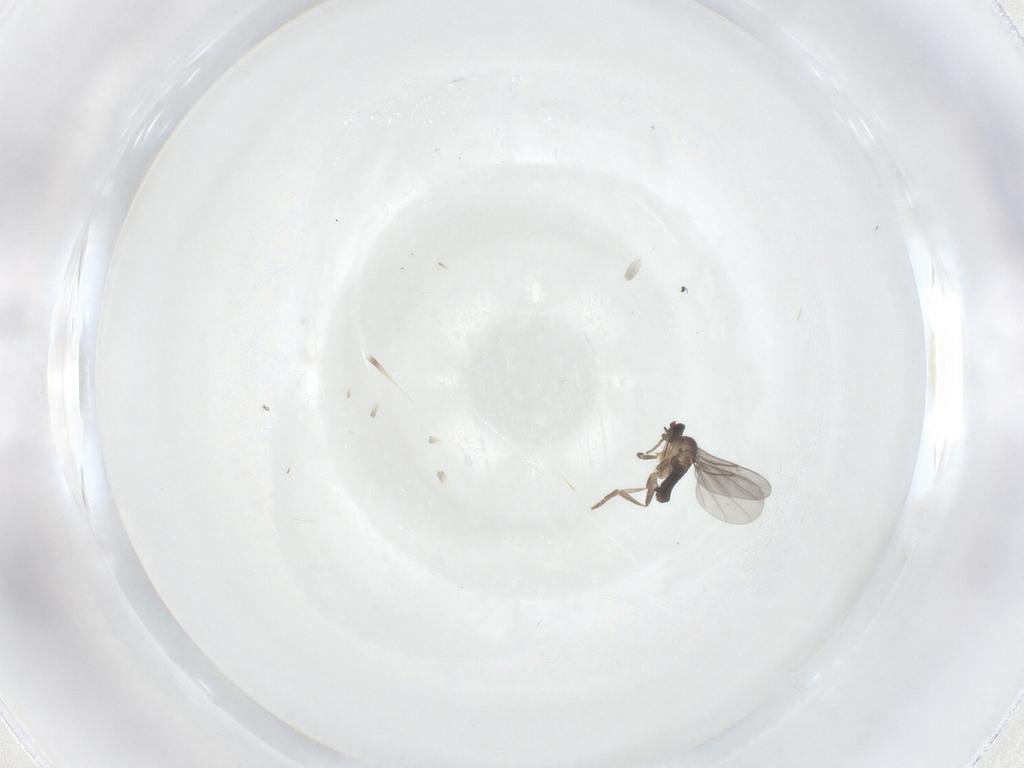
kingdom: Animalia
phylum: Arthropoda
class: Insecta
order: Diptera
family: Phoridae
